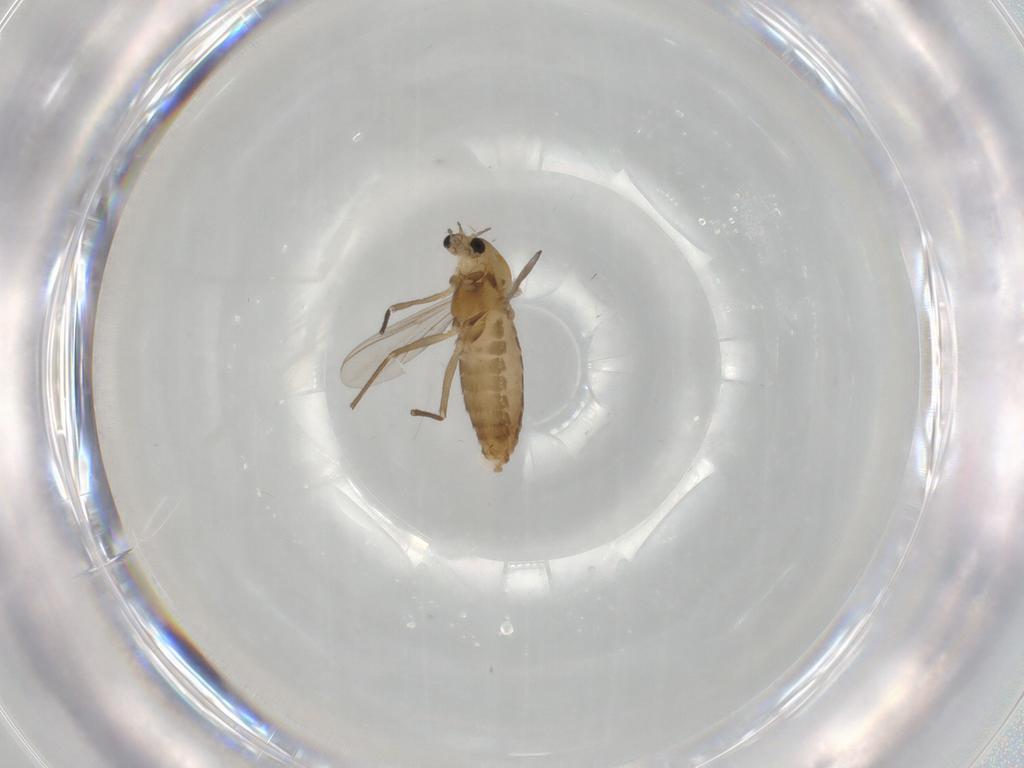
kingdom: Animalia
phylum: Arthropoda
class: Insecta
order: Diptera
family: Chironomidae
